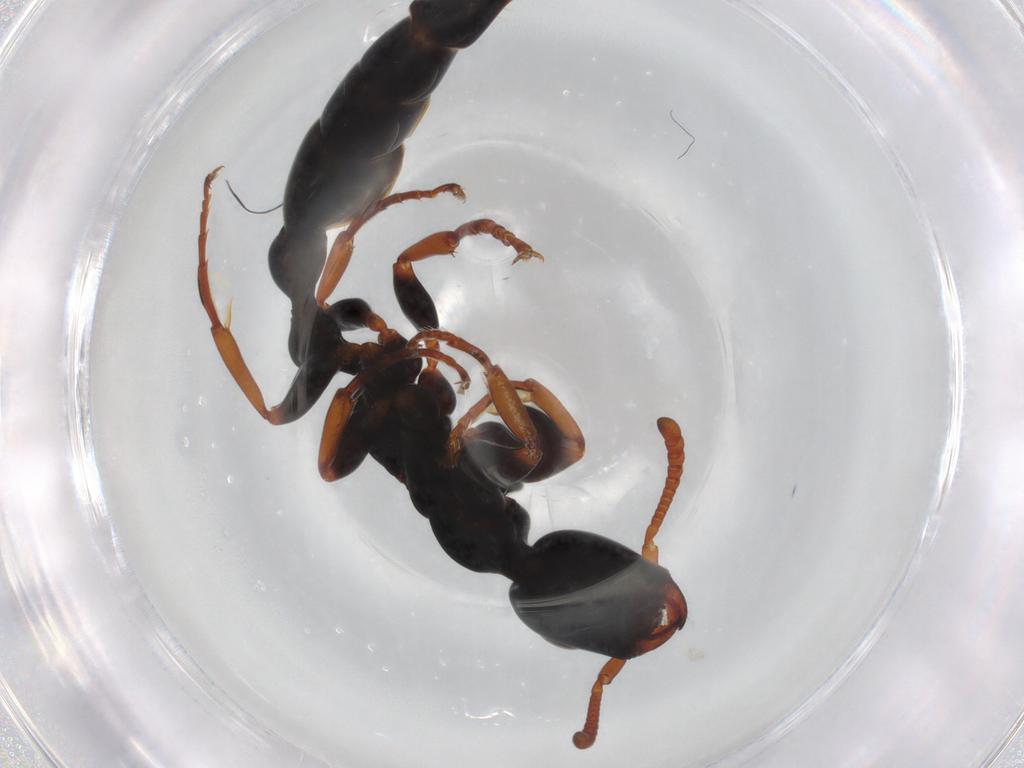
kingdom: Animalia
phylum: Arthropoda
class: Insecta
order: Hymenoptera
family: Formicidae
